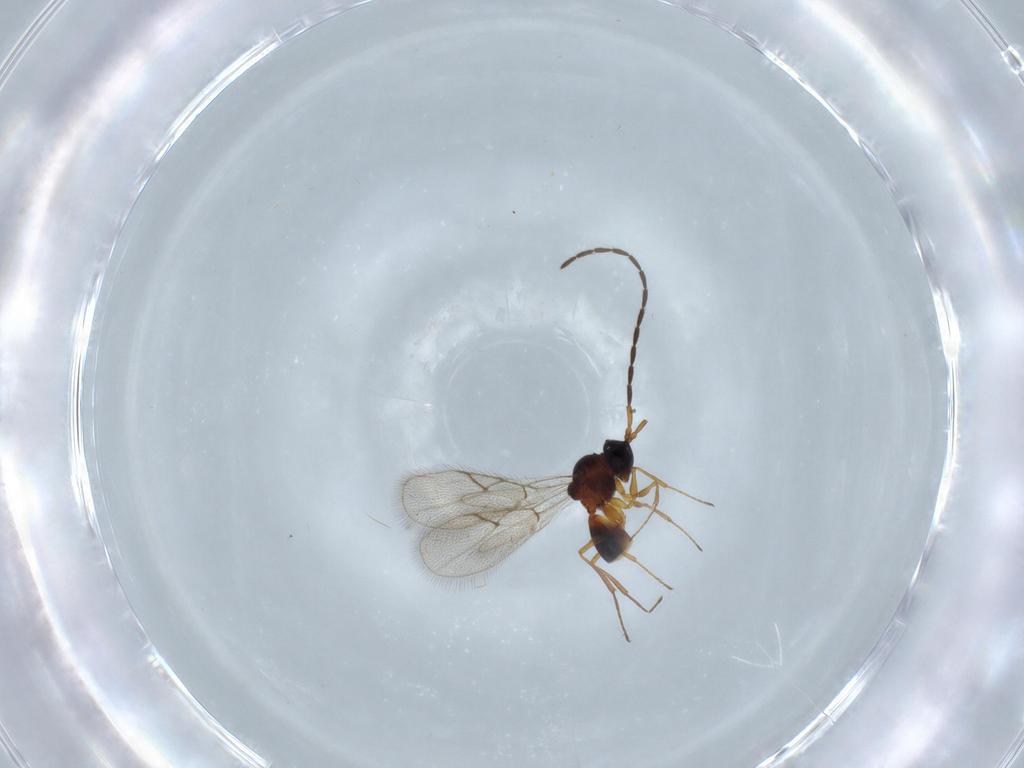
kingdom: Animalia
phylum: Arthropoda
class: Insecta
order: Hymenoptera
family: Figitidae
